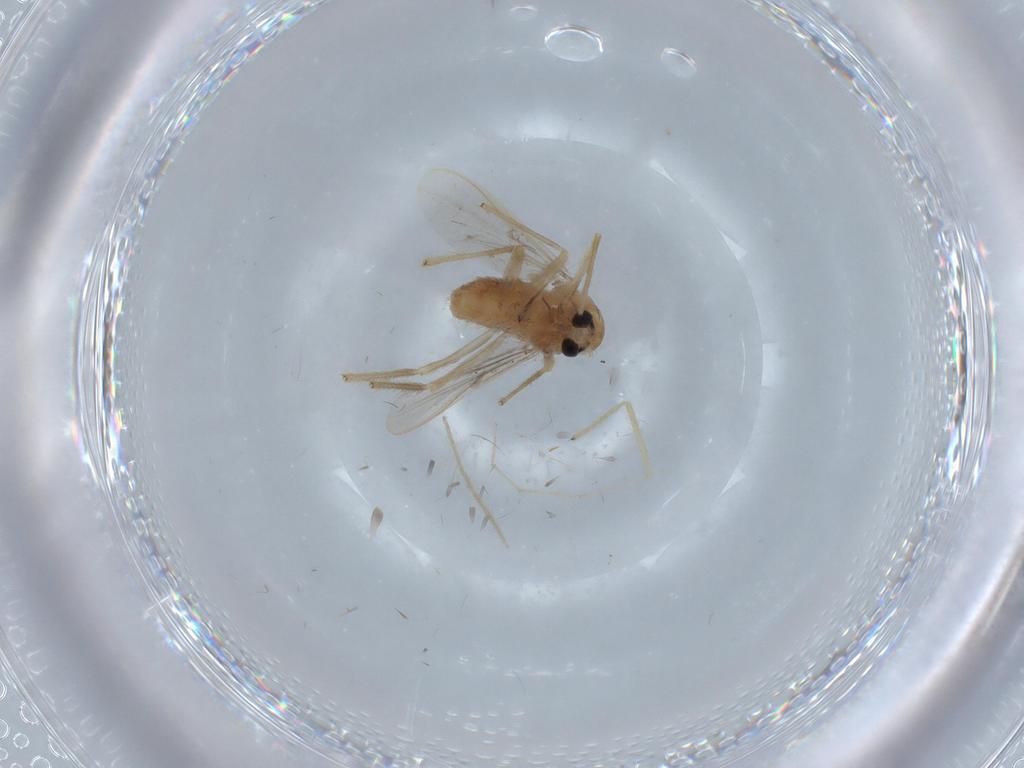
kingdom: Animalia
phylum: Arthropoda
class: Insecta
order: Diptera
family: Chironomidae
